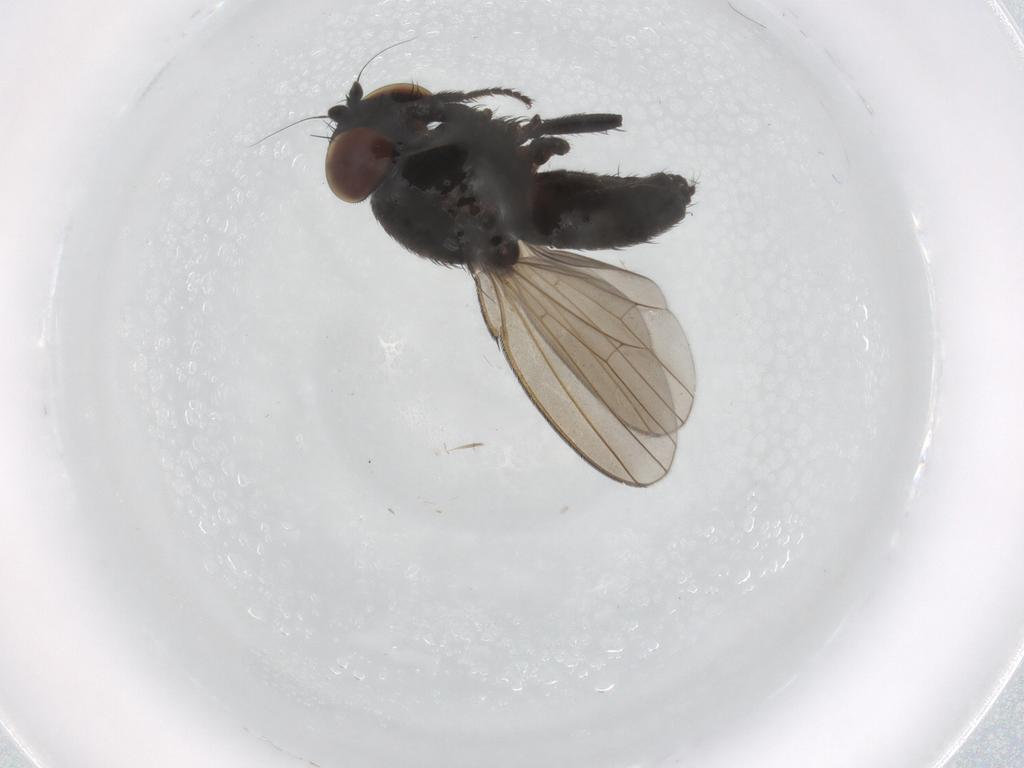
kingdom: Animalia
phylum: Arthropoda
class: Insecta
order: Diptera
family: Milichiidae
